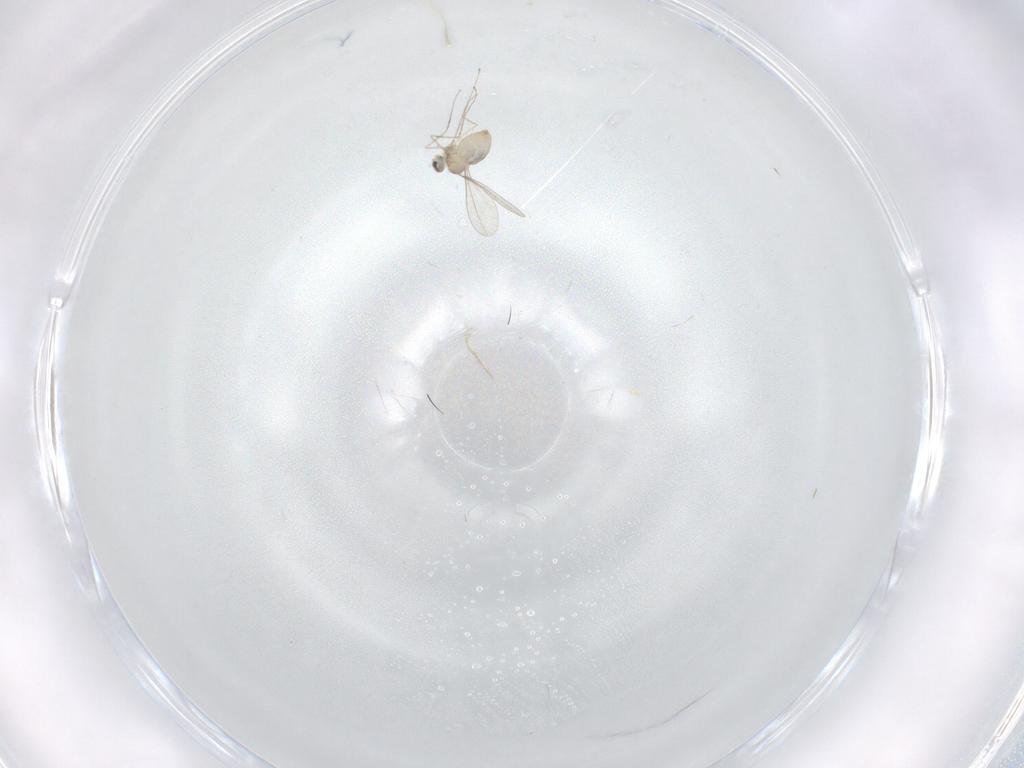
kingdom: Animalia
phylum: Arthropoda
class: Insecta
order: Diptera
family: Cecidomyiidae
